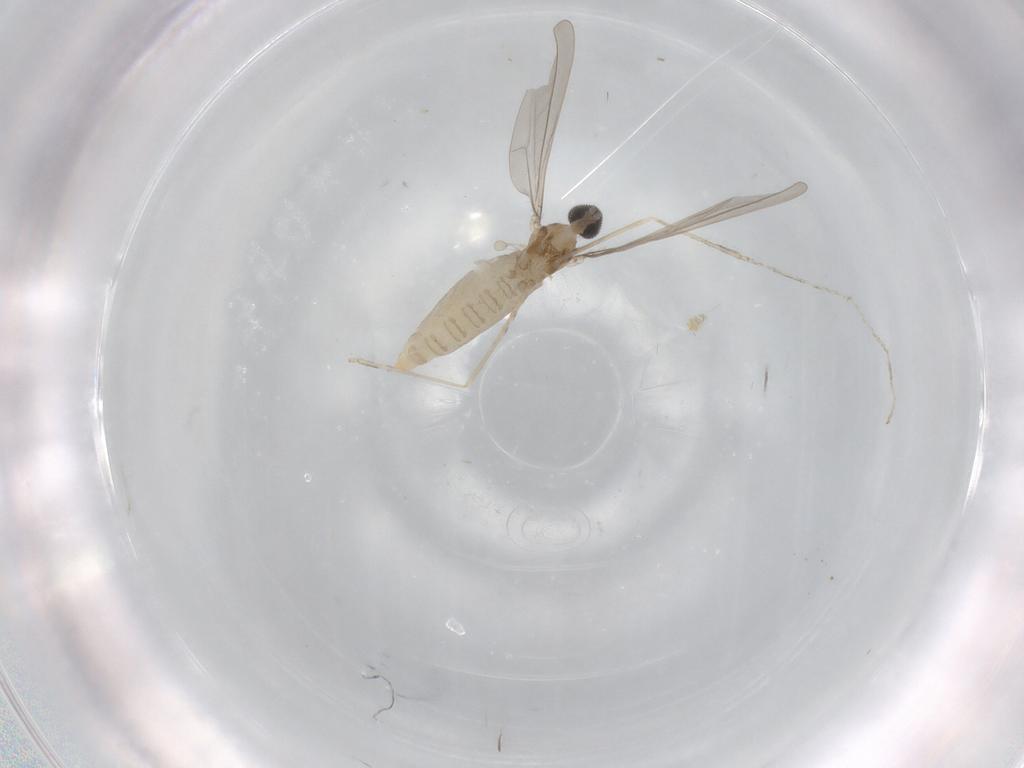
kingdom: Animalia
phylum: Arthropoda
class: Insecta
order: Diptera
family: Cecidomyiidae
